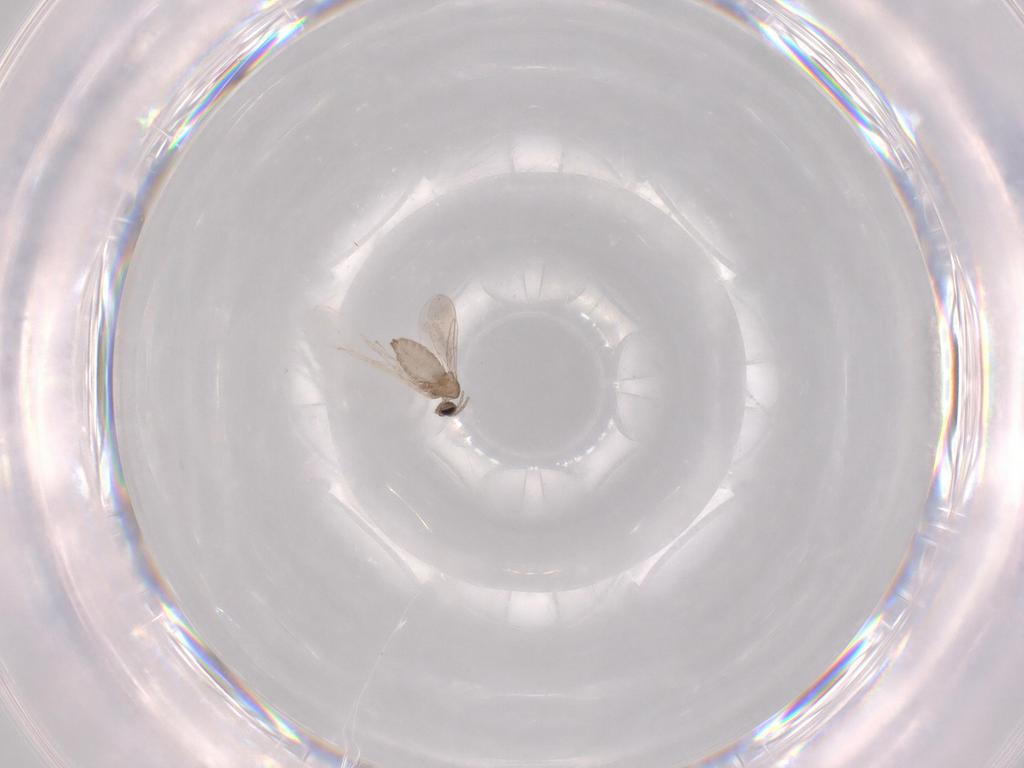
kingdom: Animalia
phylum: Arthropoda
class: Insecta
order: Diptera
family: Cecidomyiidae
